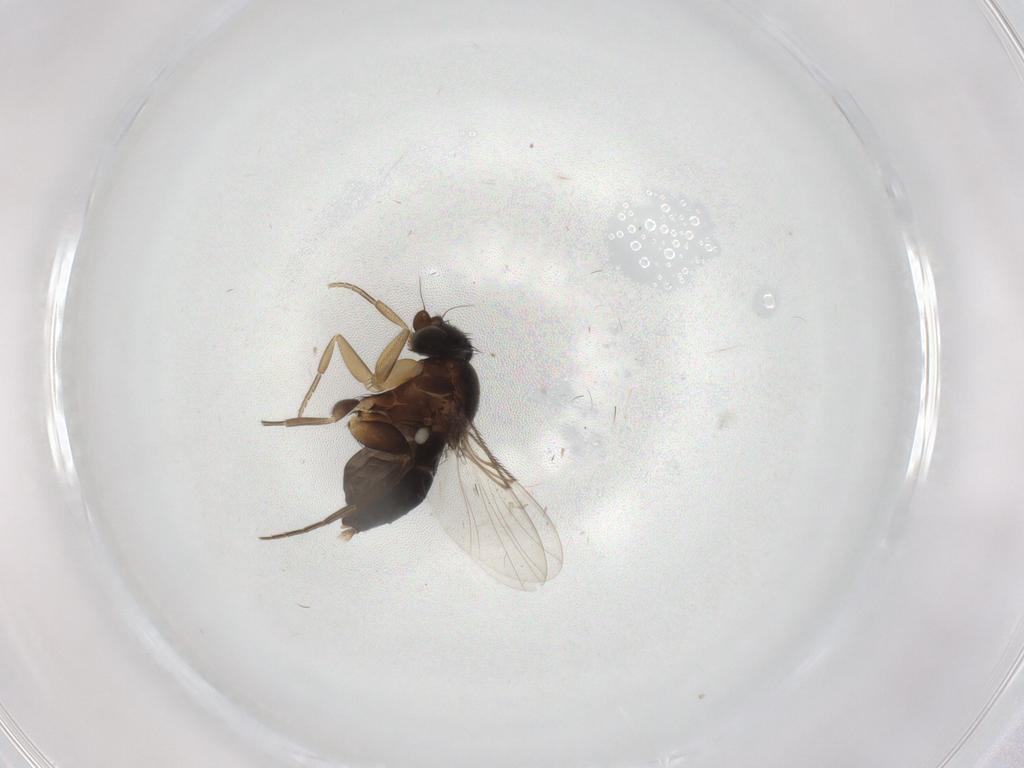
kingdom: Animalia
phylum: Arthropoda
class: Insecta
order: Diptera
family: Phoridae
